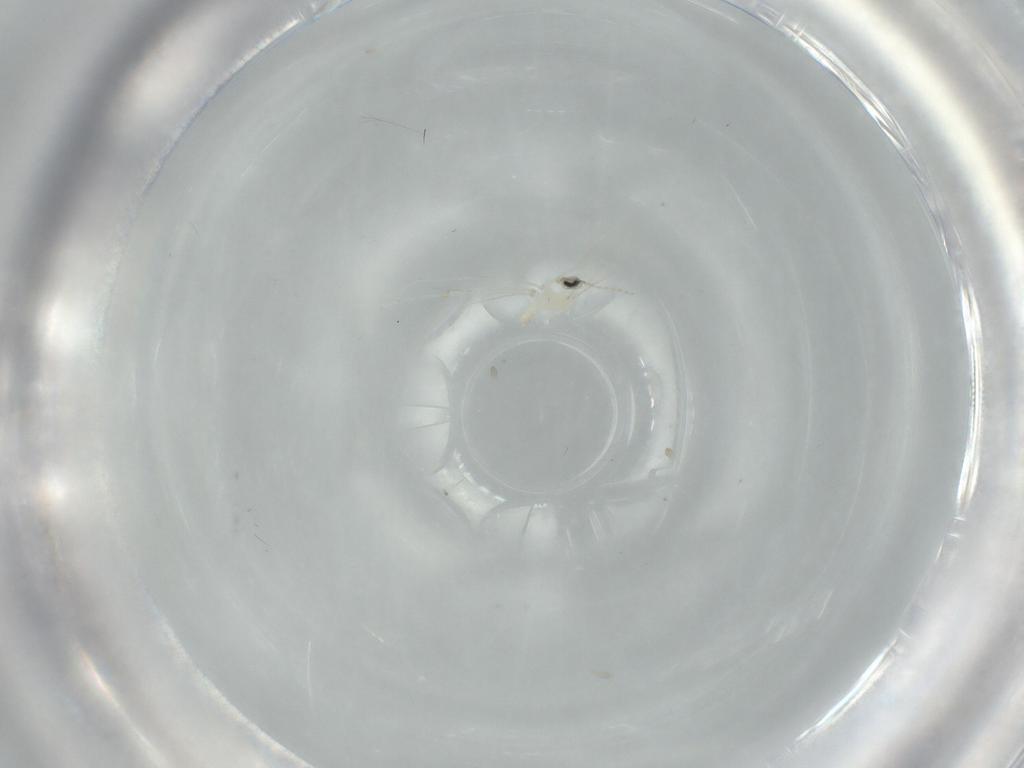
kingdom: Animalia
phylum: Arthropoda
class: Insecta
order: Diptera
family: Cecidomyiidae
